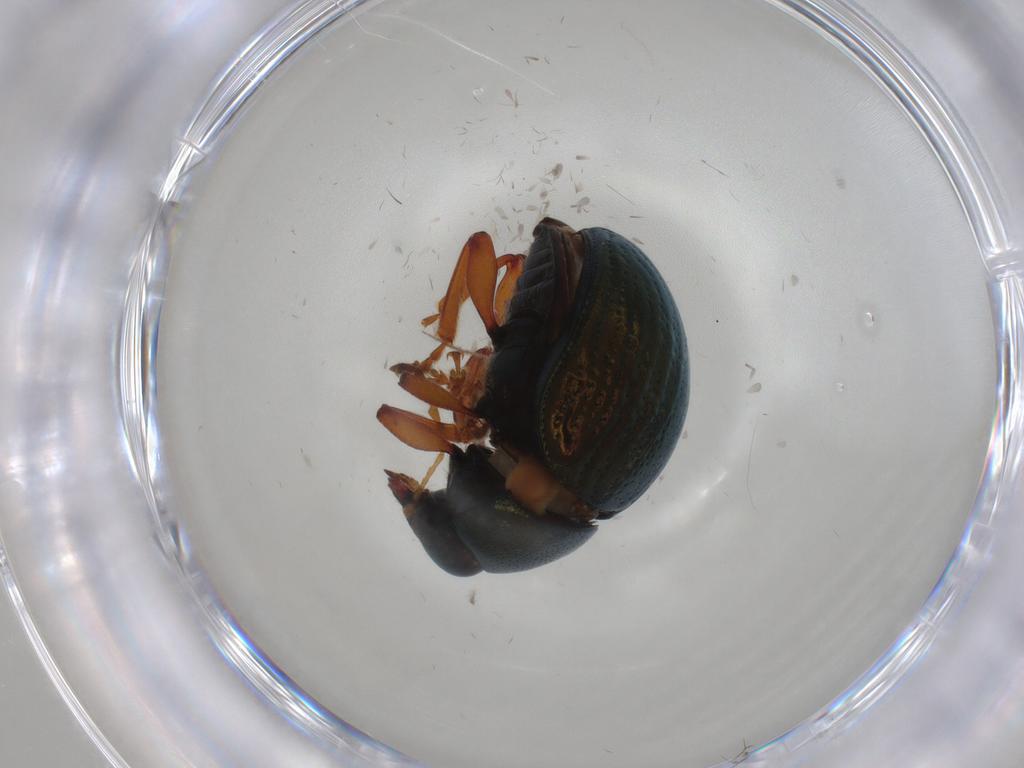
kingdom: Animalia
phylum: Arthropoda
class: Insecta
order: Coleoptera
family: Chrysomelidae
